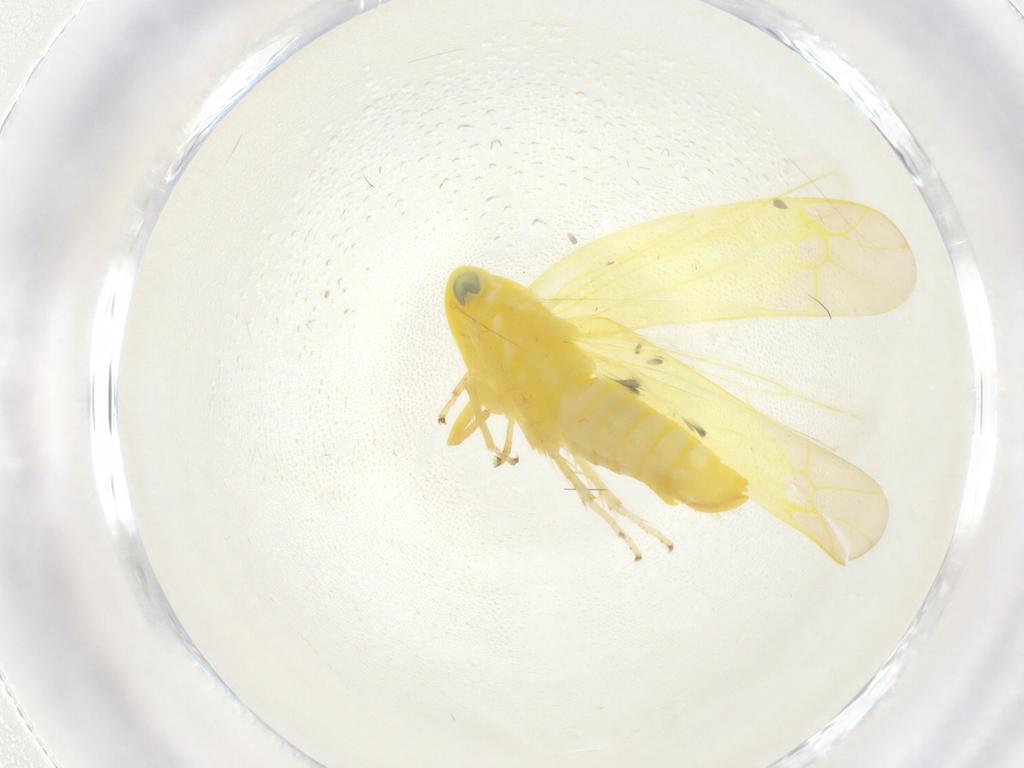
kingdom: Animalia
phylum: Arthropoda
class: Insecta
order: Hemiptera
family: Cicadellidae
